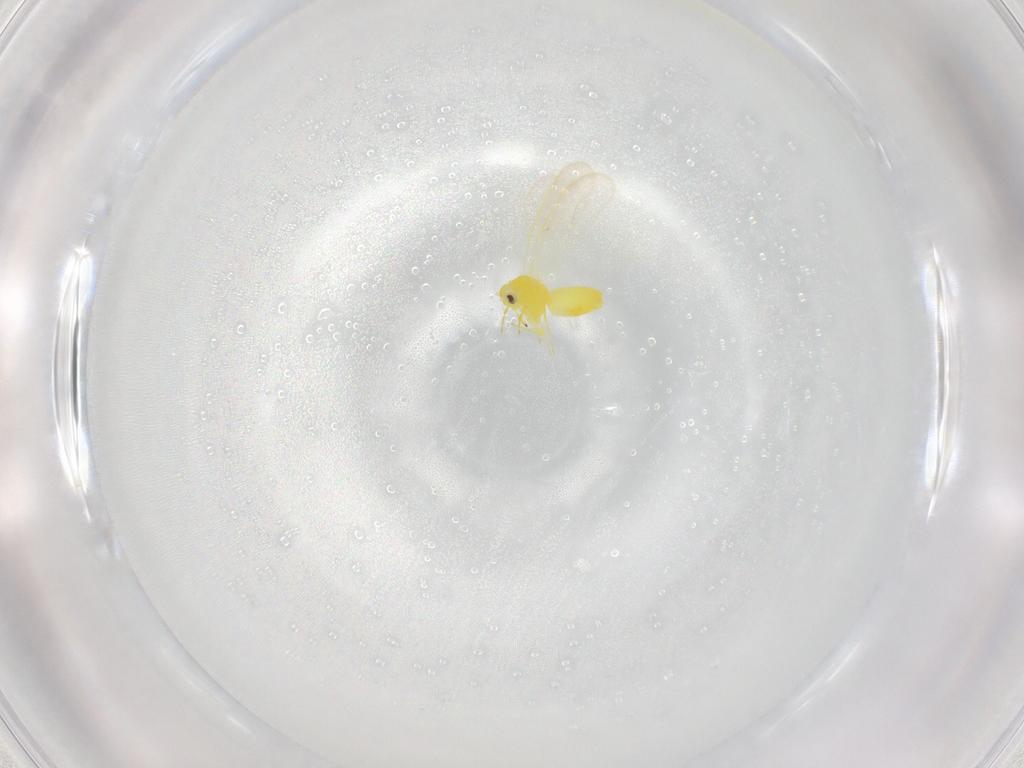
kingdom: Animalia
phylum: Arthropoda
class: Insecta
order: Hemiptera
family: Aleyrodidae
